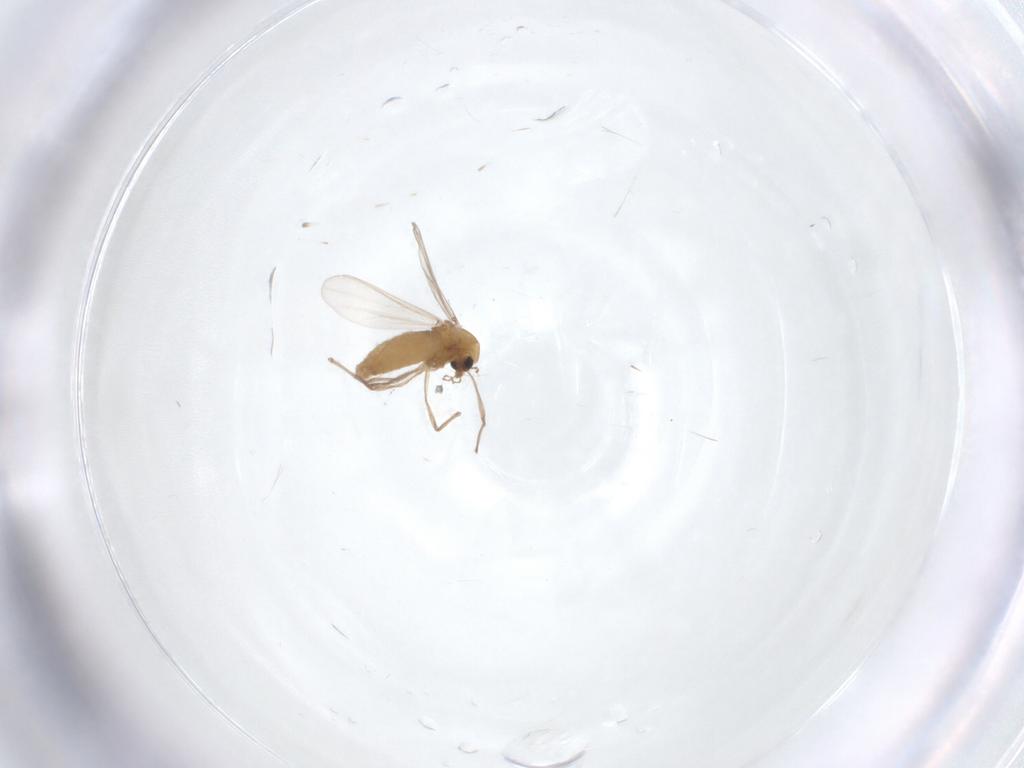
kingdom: Animalia
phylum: Arthropoda
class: Insecta
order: Diptera
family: Chironomidae
